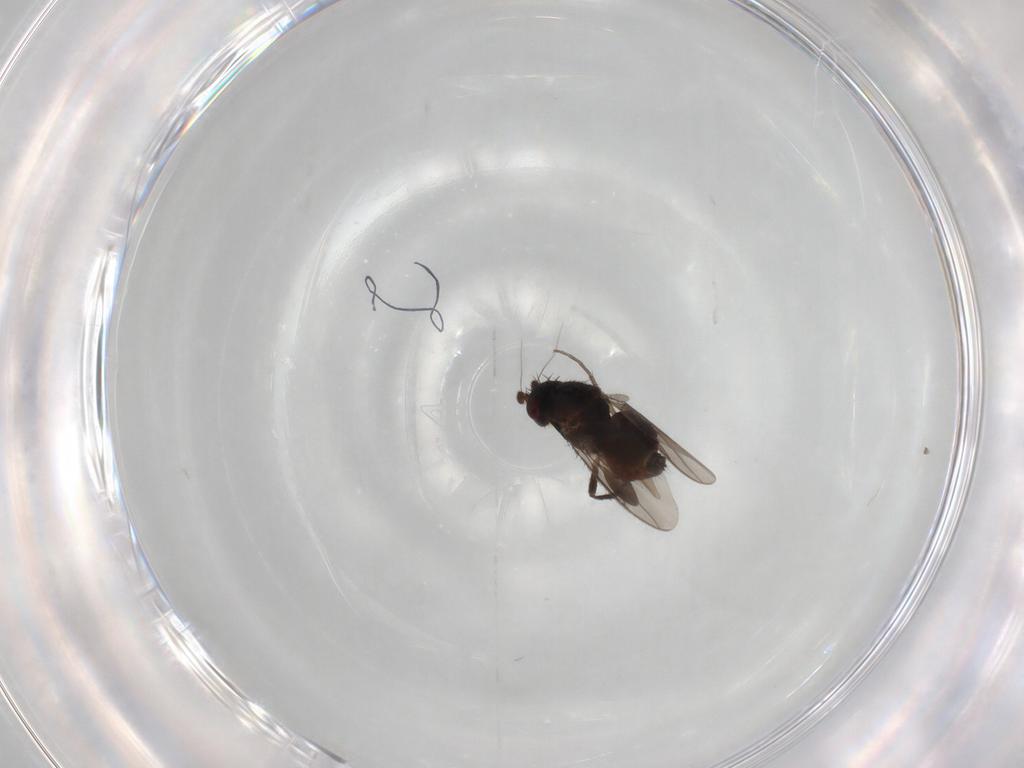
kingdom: Animalia
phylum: Arthropoda
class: Insecta
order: Diptera
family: Sphaeroceridae
